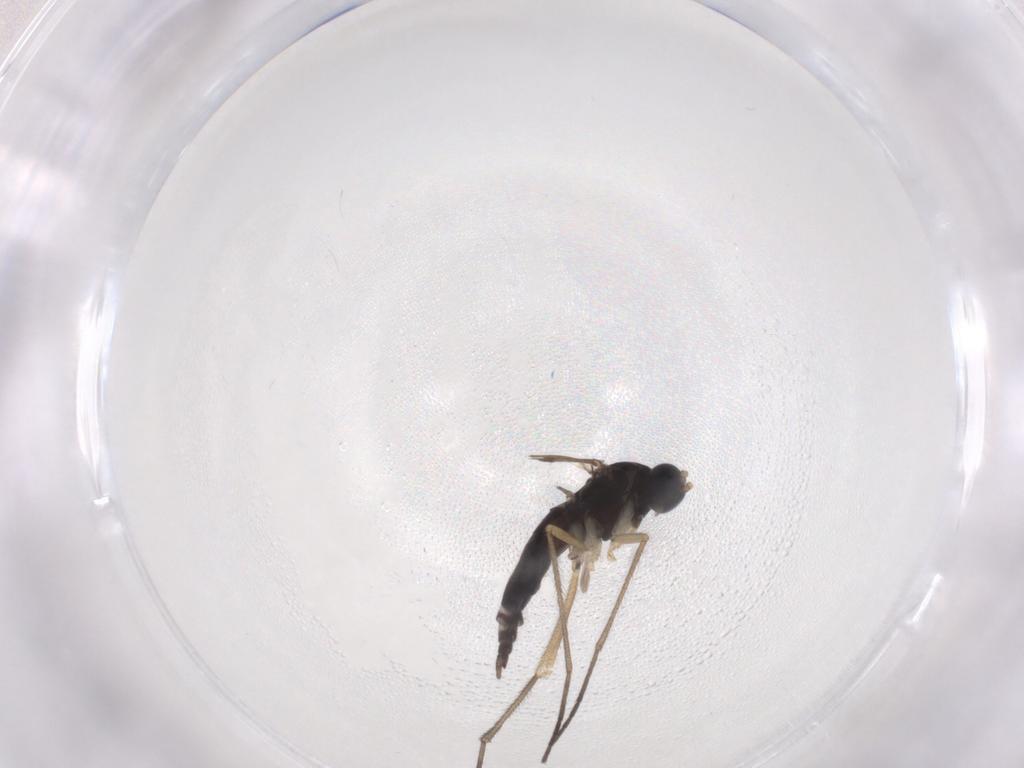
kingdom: Animalia
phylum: Arthropoda
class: Insecta
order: Diptera
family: Sciaridae
